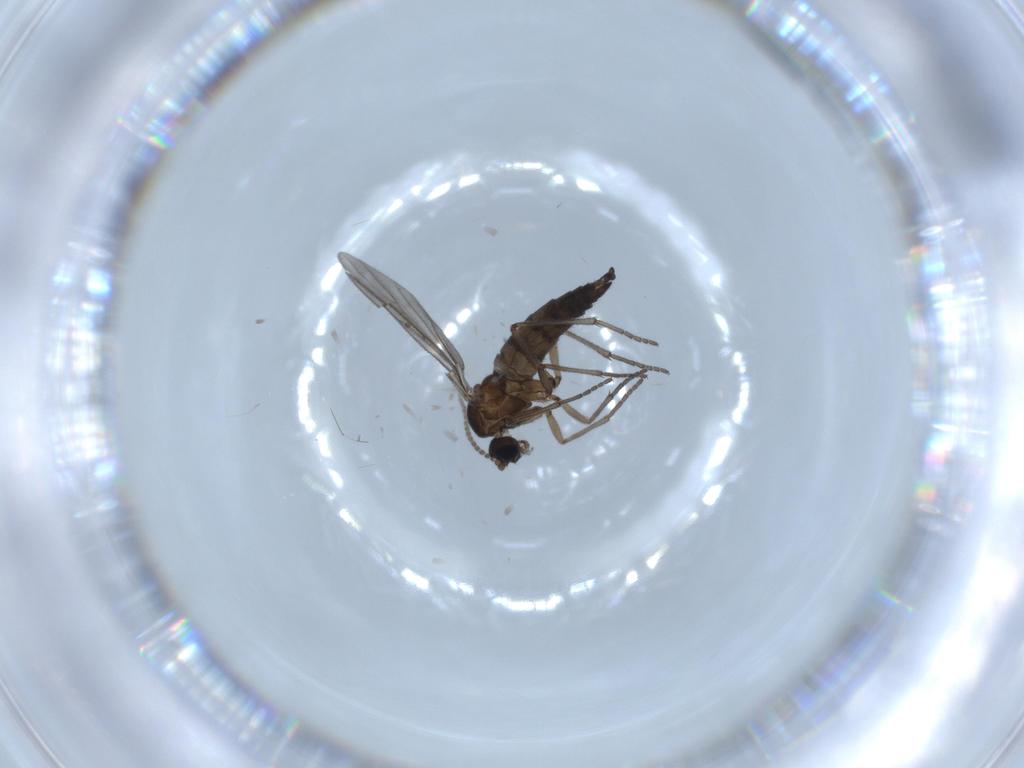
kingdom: Animalia
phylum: Arthropoda
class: Insecta
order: Diptera
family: Sciaridae
